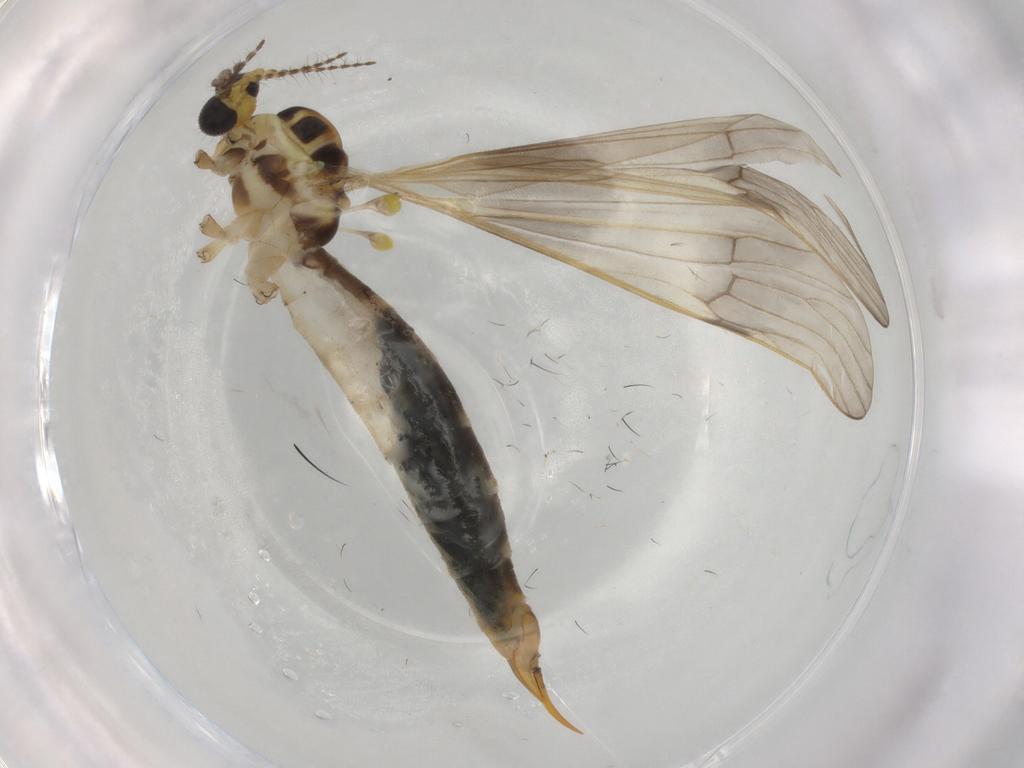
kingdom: Animalia
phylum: Arthropoda
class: Insecta
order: Diptera
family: Limoniidae
